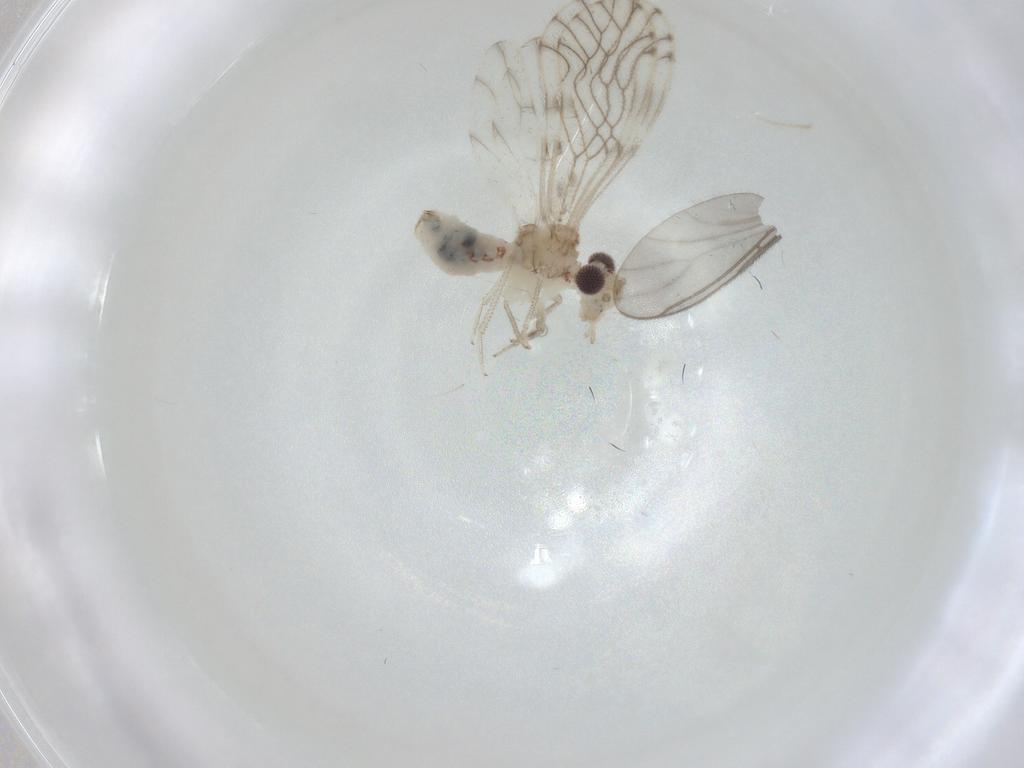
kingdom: Animalia
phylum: Arthropoda
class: Insecta
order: Psocodea
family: Philotarsidae
